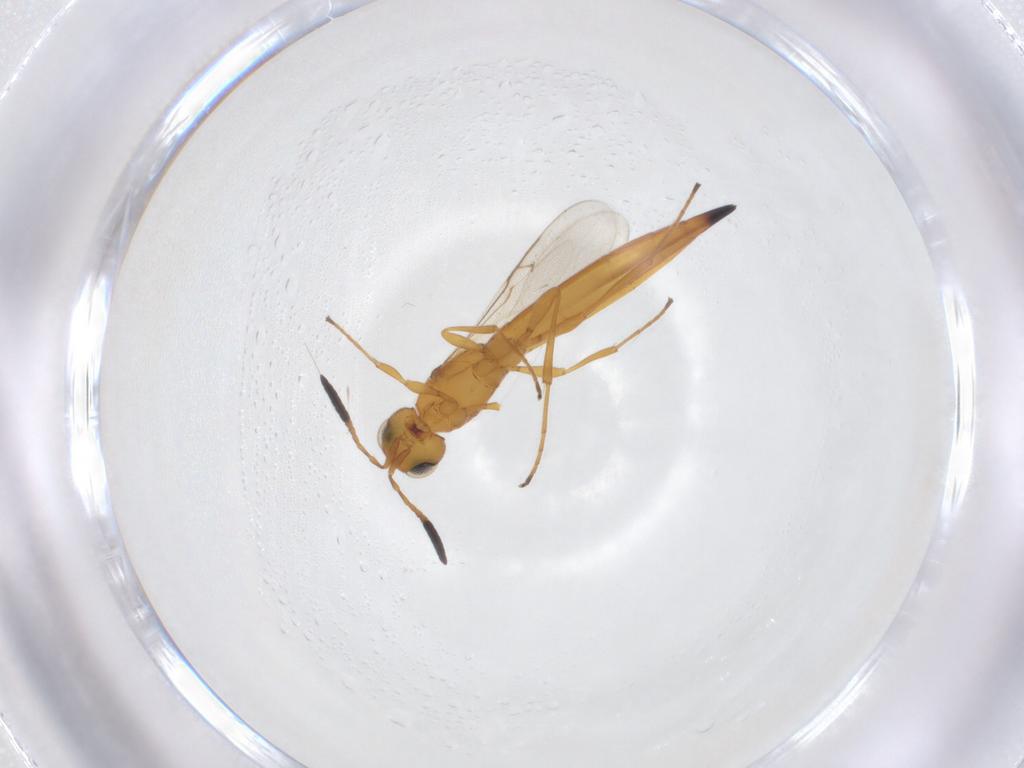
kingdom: Animalia
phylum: Arthropoda
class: Insecta
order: Hymenoptera
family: Scelionidae
